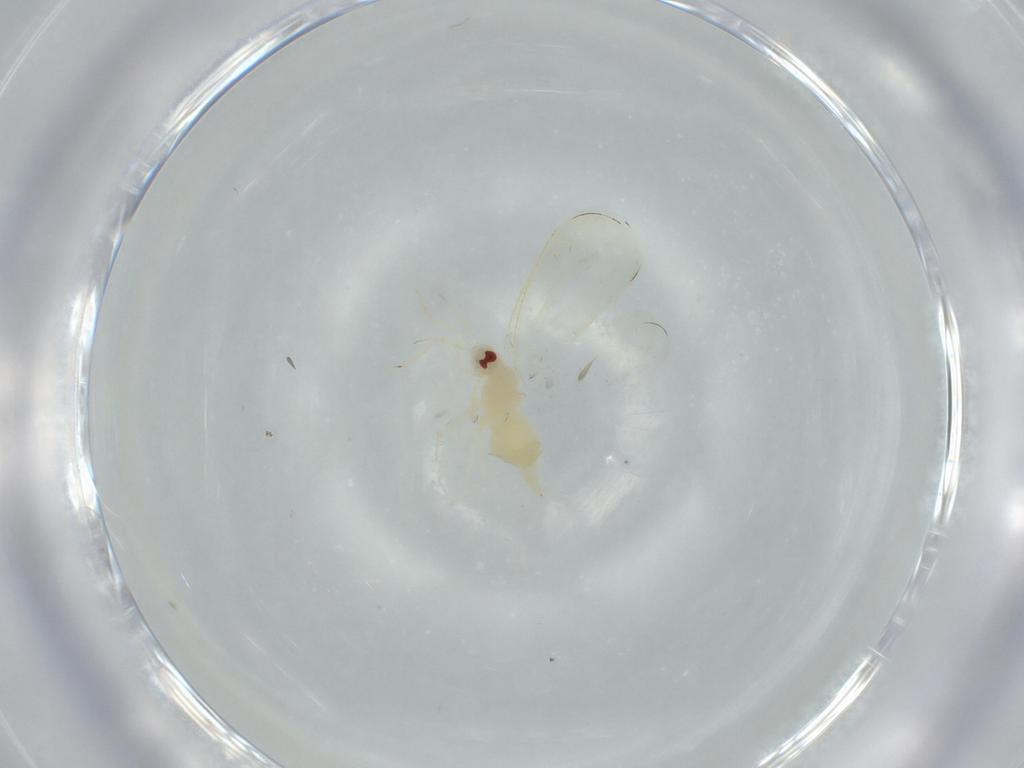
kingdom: Animalia
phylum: Arthropoda
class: Insecta
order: Hemiptera
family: Aleyrodidae
